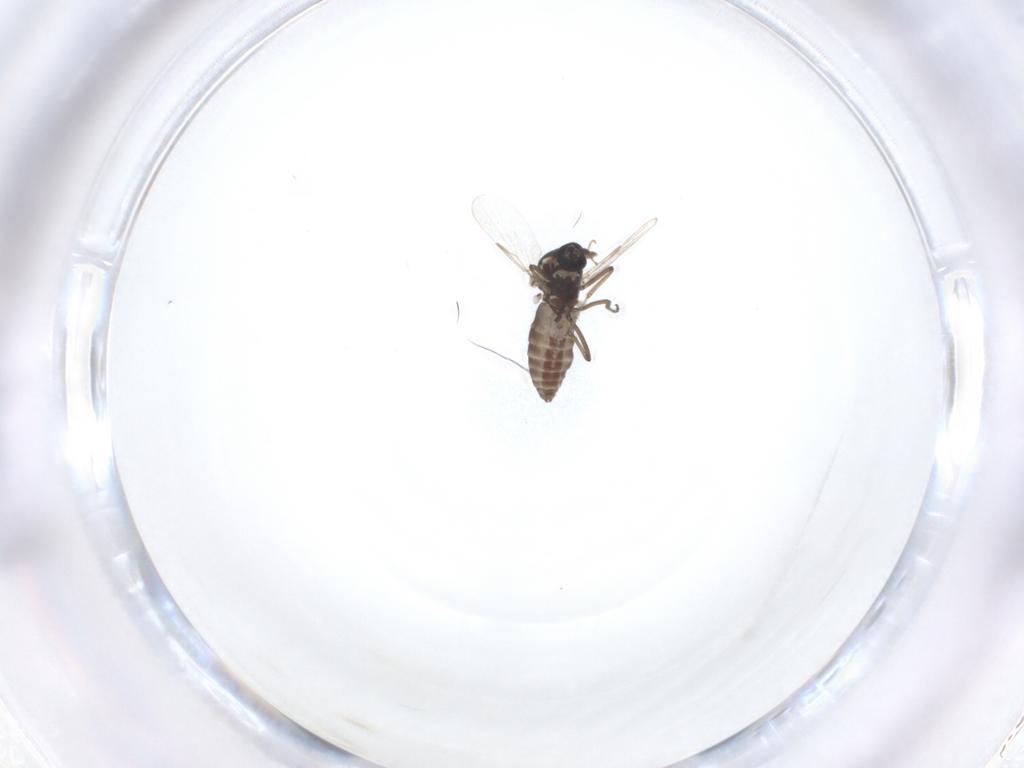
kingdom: Animalia
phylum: Arthropoda
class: Insecta
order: Diptera
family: Ceratopogonidae
